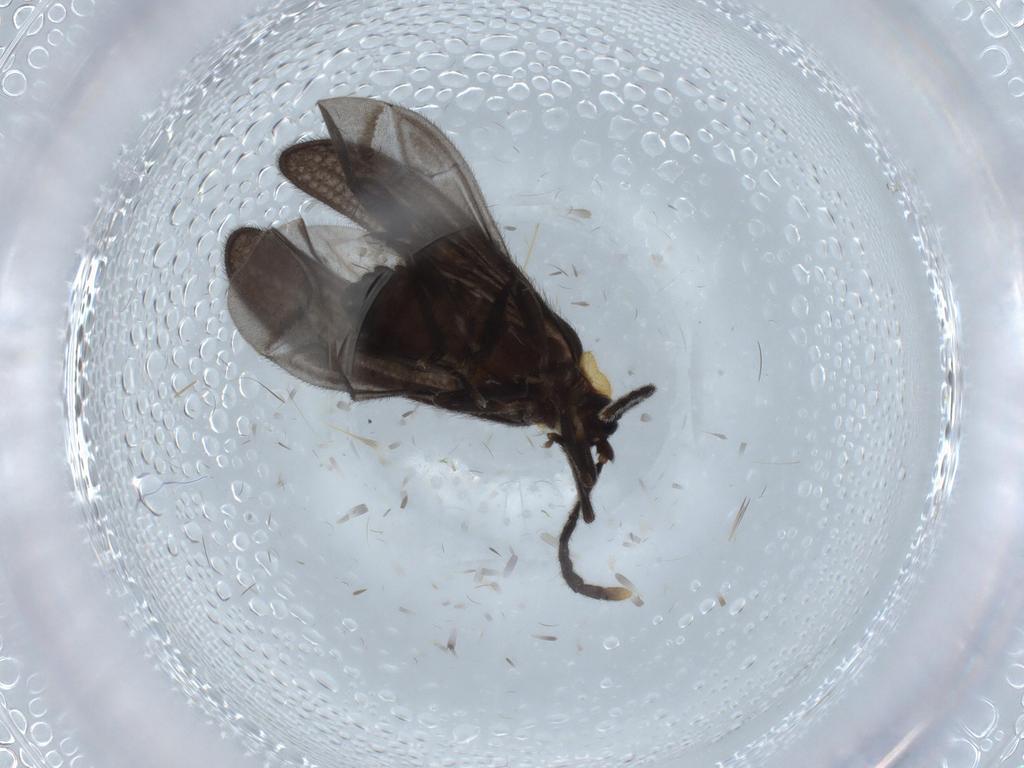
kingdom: Animalia
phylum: Arthropoda
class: Insecta
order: Coleoptera
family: Lycidae
